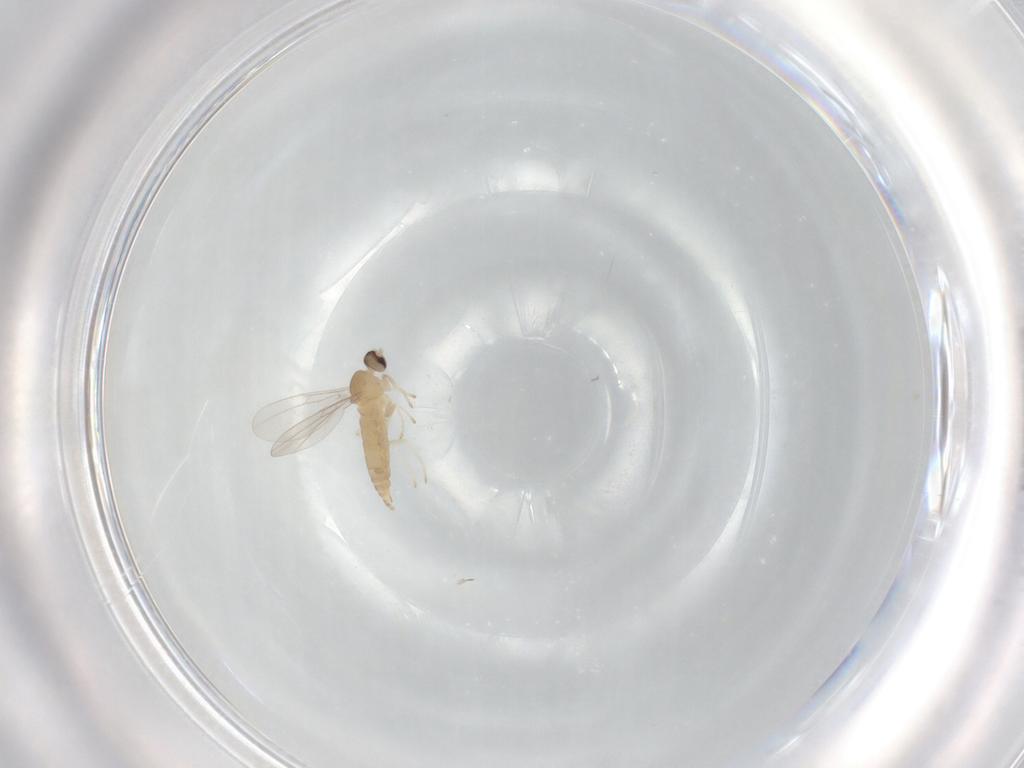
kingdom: Animalia
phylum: Arthropoda
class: Insecta
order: Diptera
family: Cecidomyiidae
